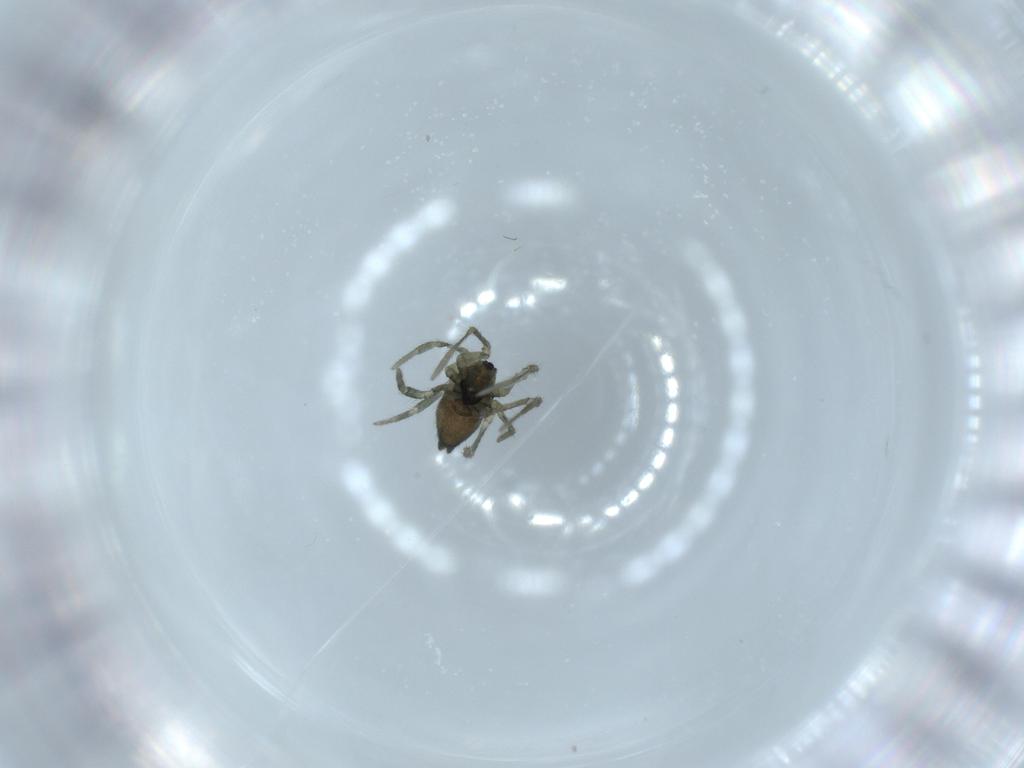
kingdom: Animalia
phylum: Arthropoda
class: Arachnida
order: Araneae
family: Linyphiidae
